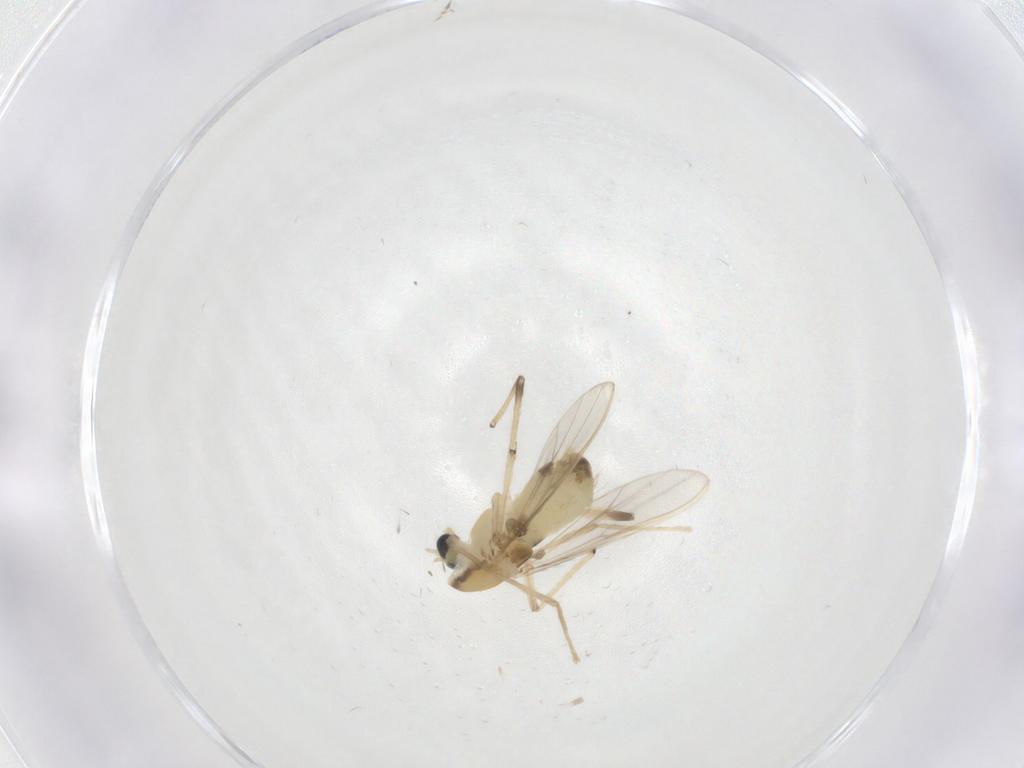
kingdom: Animalia
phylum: Arthropoda
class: Insecta
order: Diptera
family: Chironomidae
